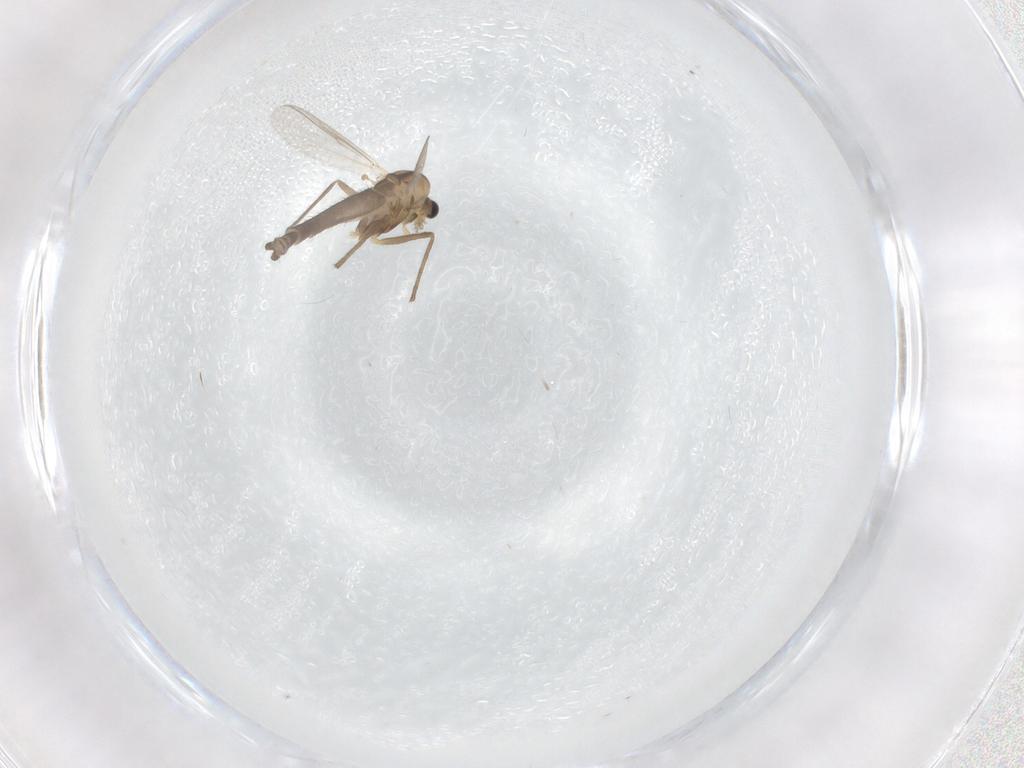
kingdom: Animalia
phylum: Arthropoda
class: Insecta
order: Diptera
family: Chironomidae
